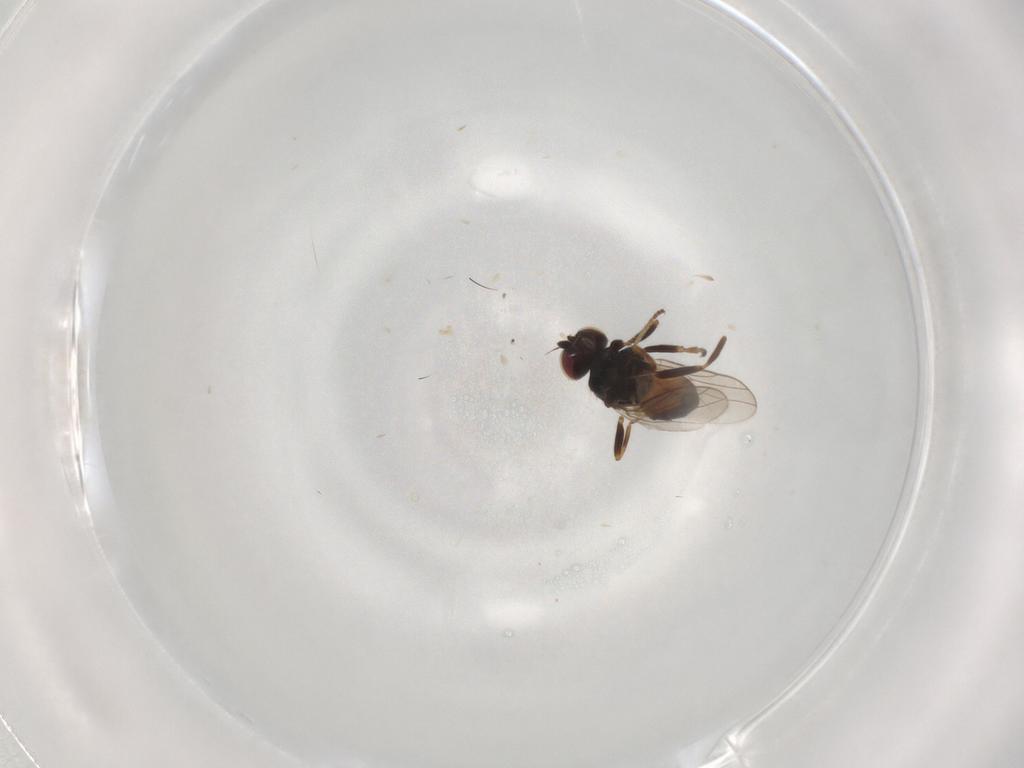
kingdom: Animalia
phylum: Arthropoda
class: Insecta
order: Diptera
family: Chloropidae
